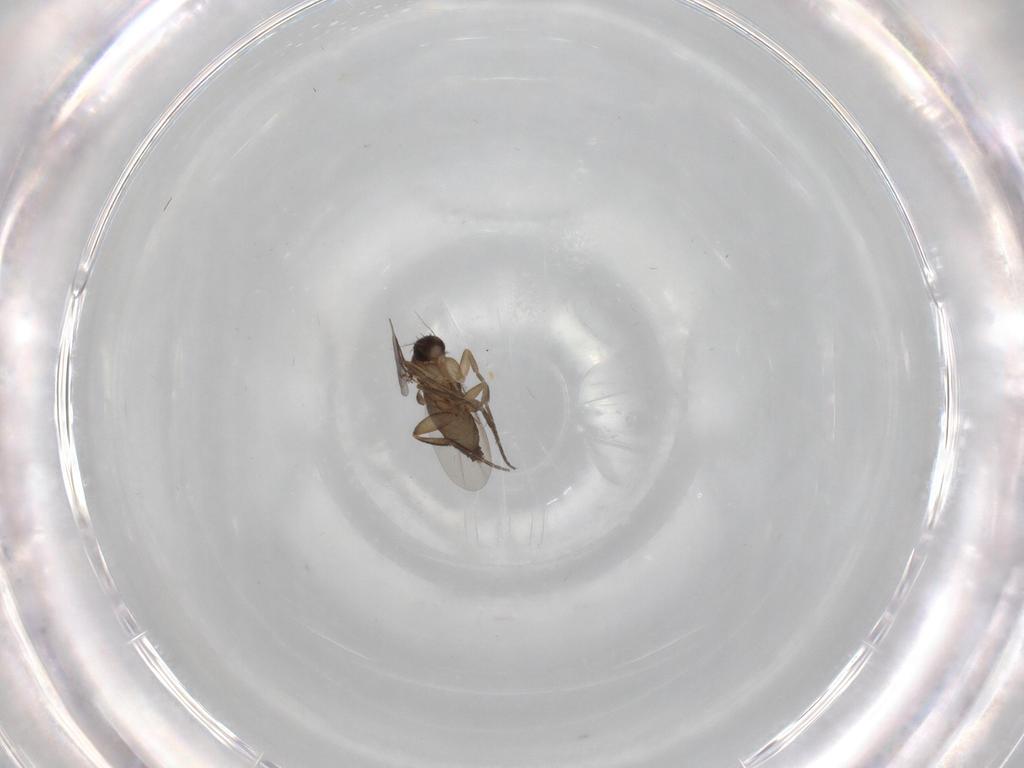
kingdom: Animalia
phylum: Arthropoda
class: Insecta
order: Diptera
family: Phoridae
